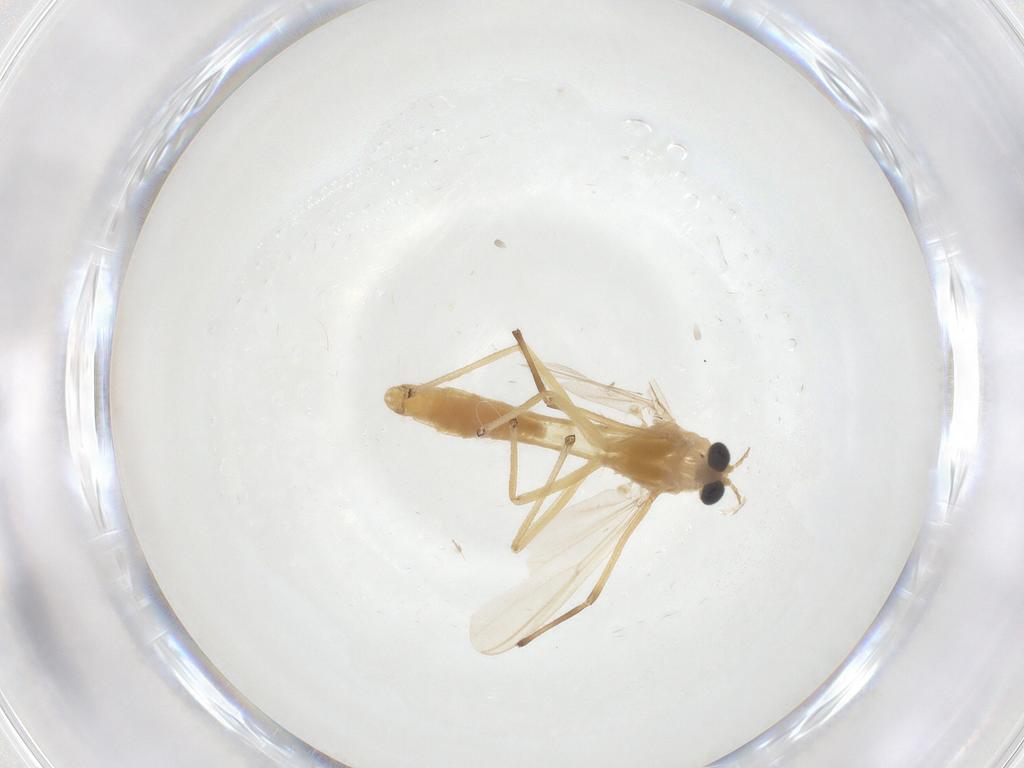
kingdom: Animalia
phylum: Arthropoda
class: Insecta
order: Diptera
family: Chironomidae
